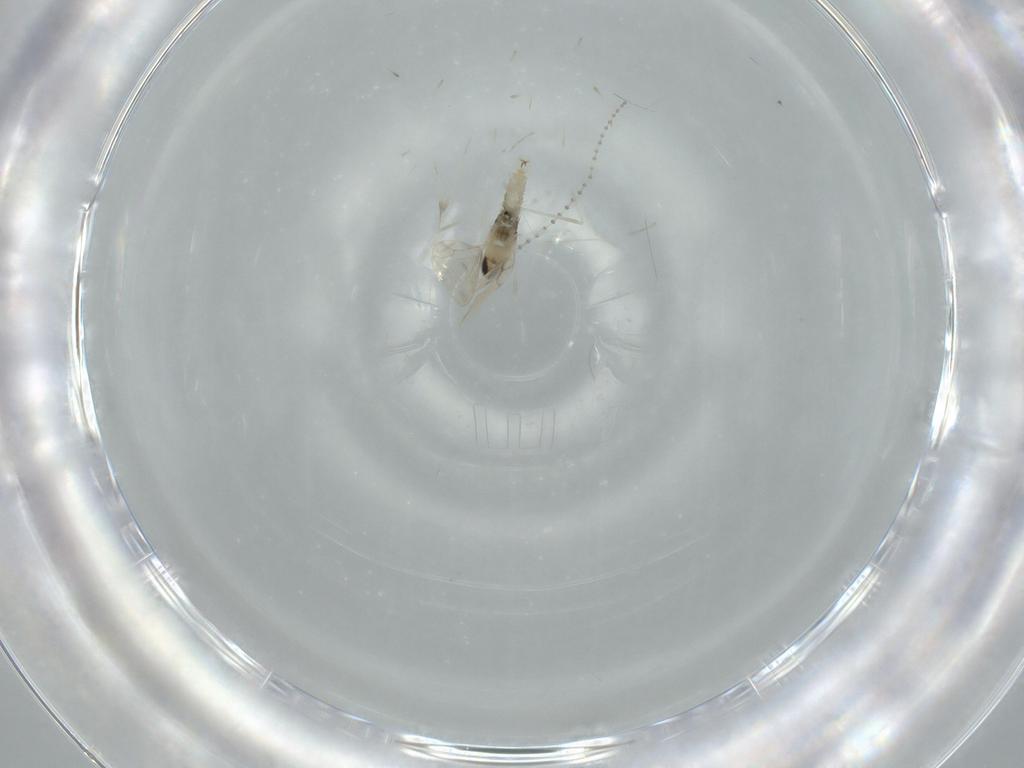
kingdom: Animalia
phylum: Arthropoda
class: Insecta
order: Diptera
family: Cecidomyiidae
